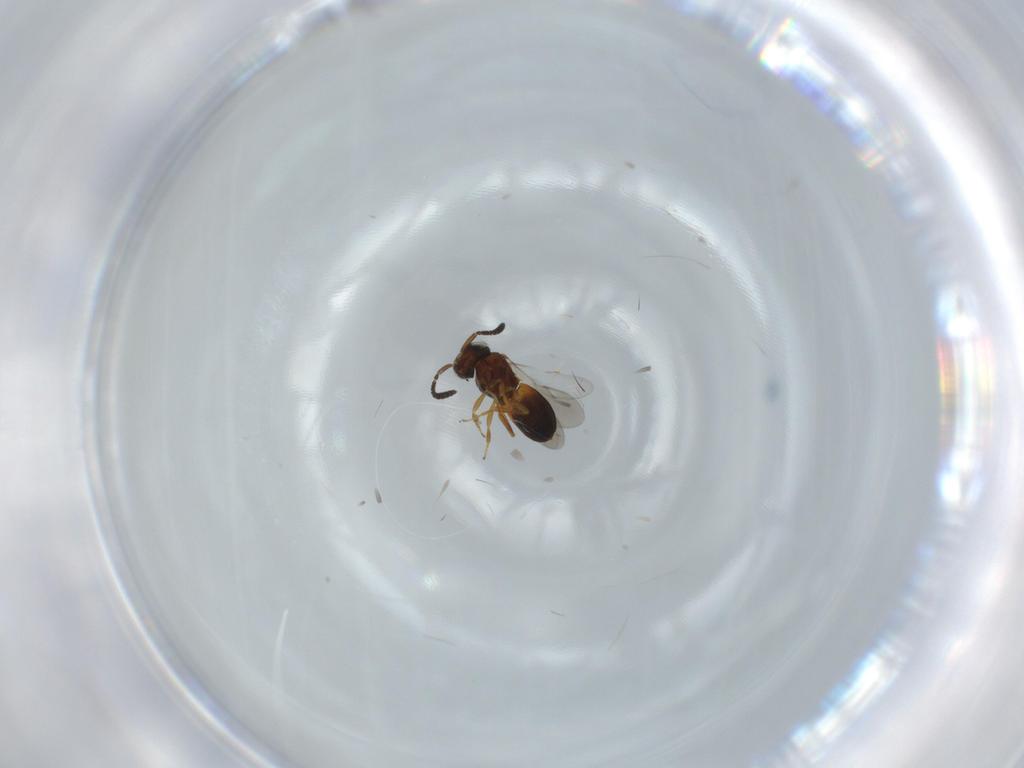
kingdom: Animalia
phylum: Arthropoda
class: Insecta
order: Hymenoptera
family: Scelionidae
